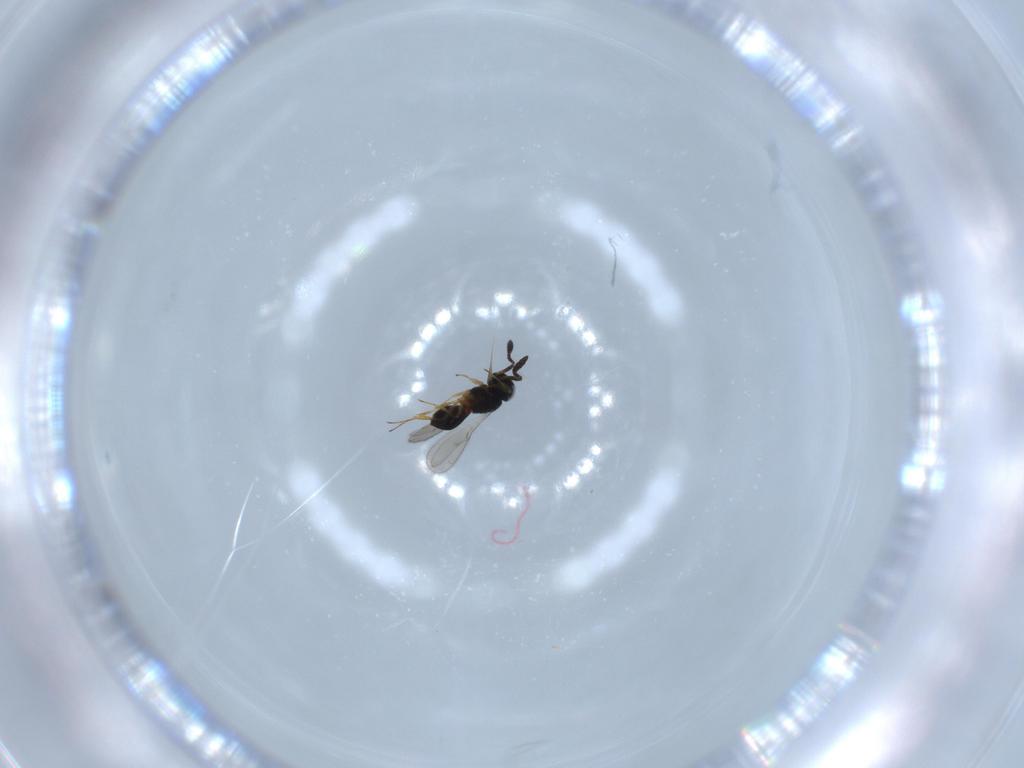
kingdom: Animalia
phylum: Arthropoda
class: Insecta
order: Hymenoptera
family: Scelionidae
